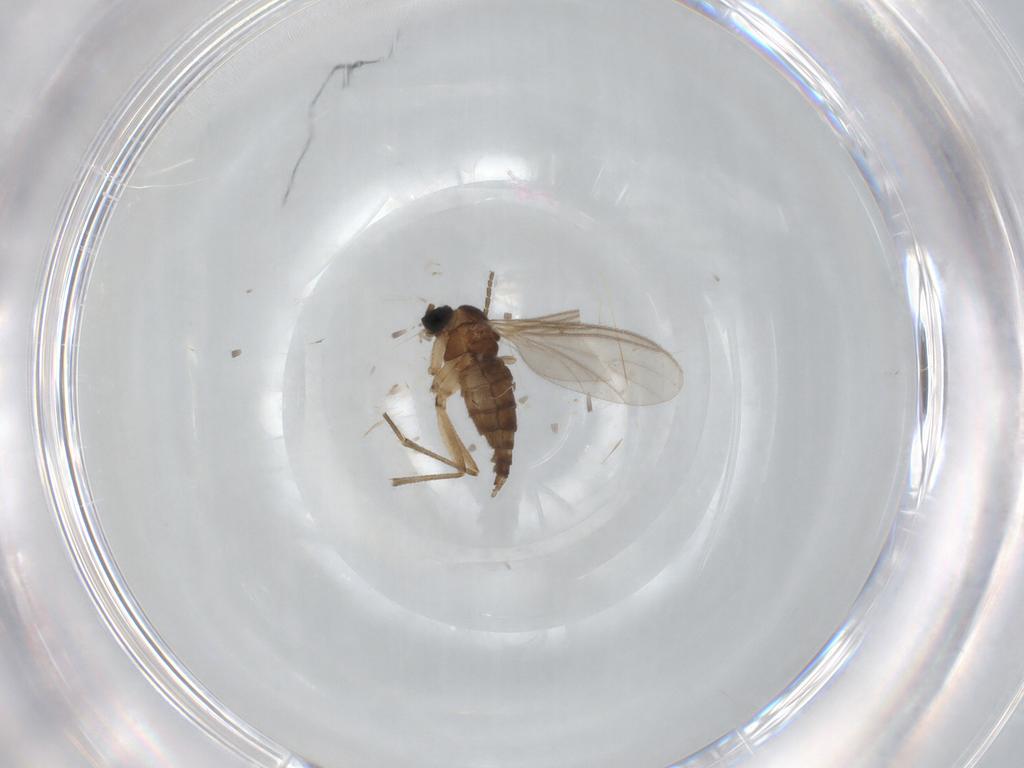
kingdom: Animalia
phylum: Arthropoda
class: Insecta
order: Diptera
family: Sciaridae
